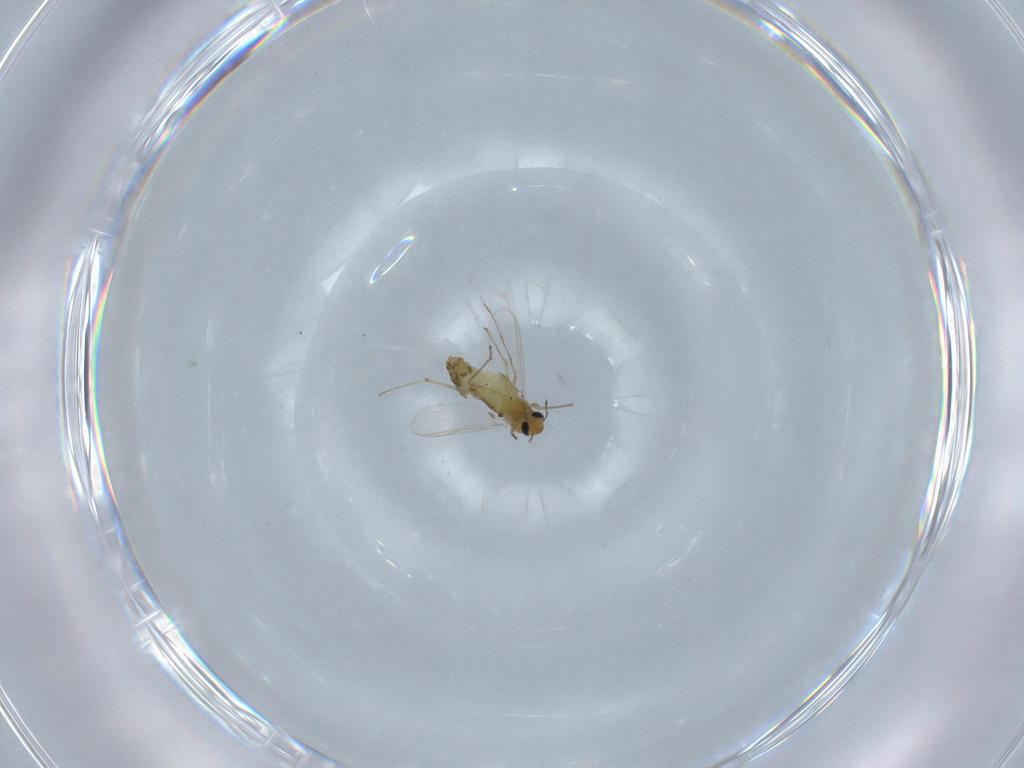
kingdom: Animalia
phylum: Arthropoda
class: Insecta
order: Diptera
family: Chironomidae
